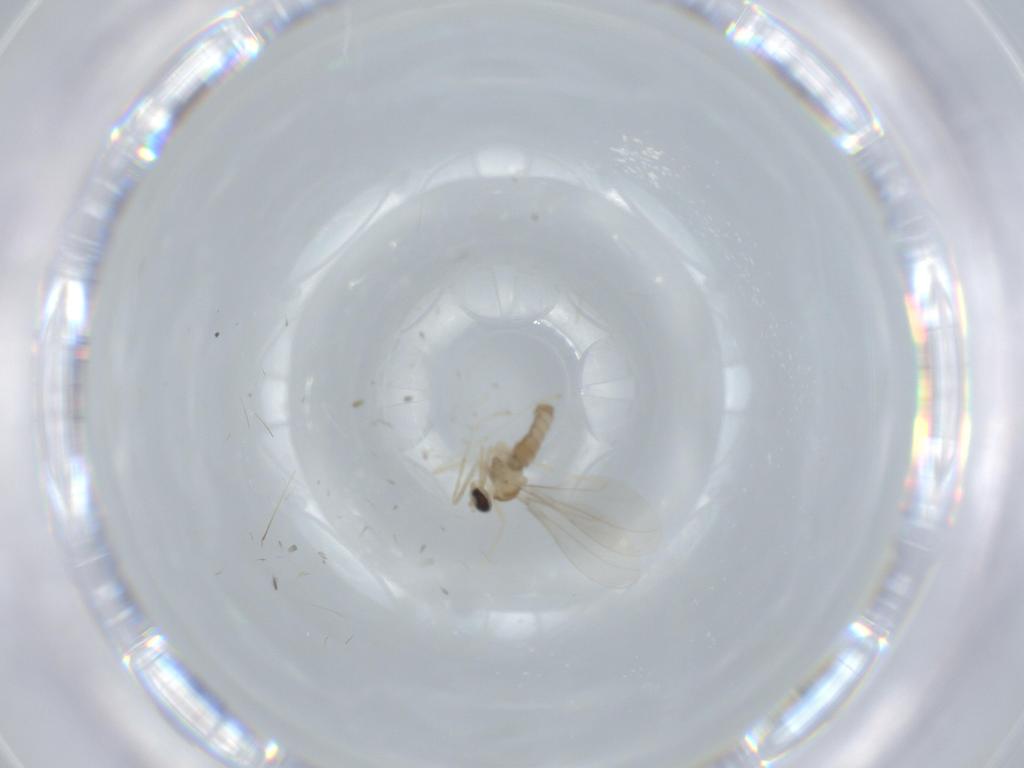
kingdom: Animalia
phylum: Arthropoda
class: Insecta
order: Diptera
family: Cecidomyiidae
